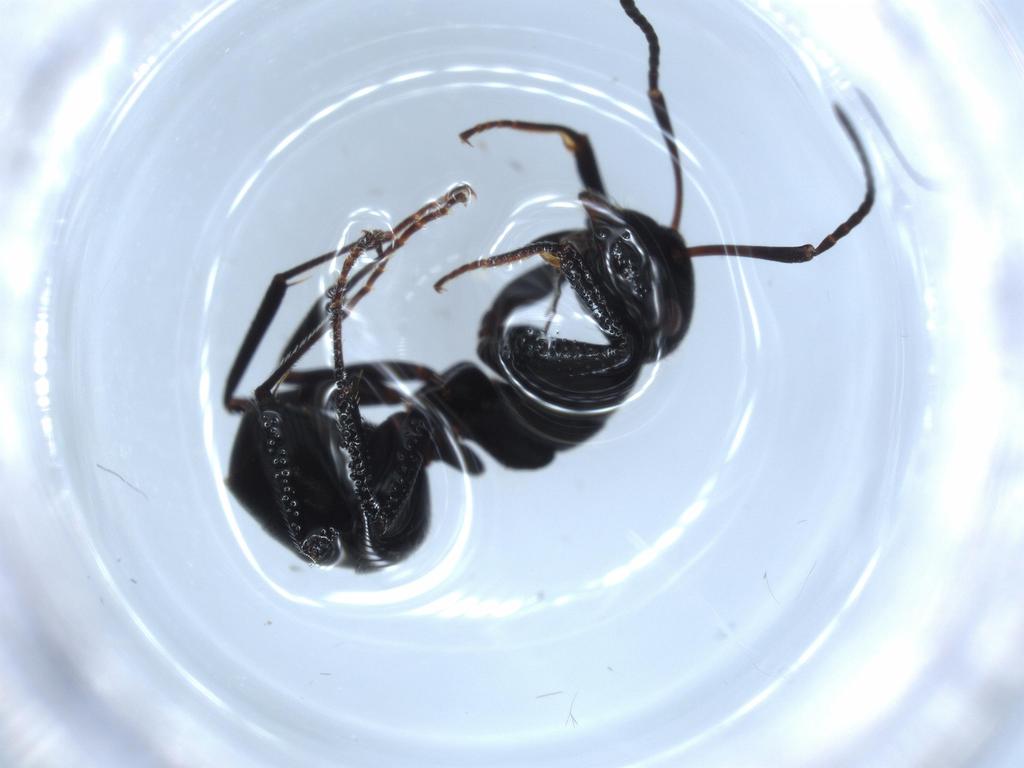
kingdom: Animalia
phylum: Arthropoda
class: Insecta
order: Hymenoptera
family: Formicidae
